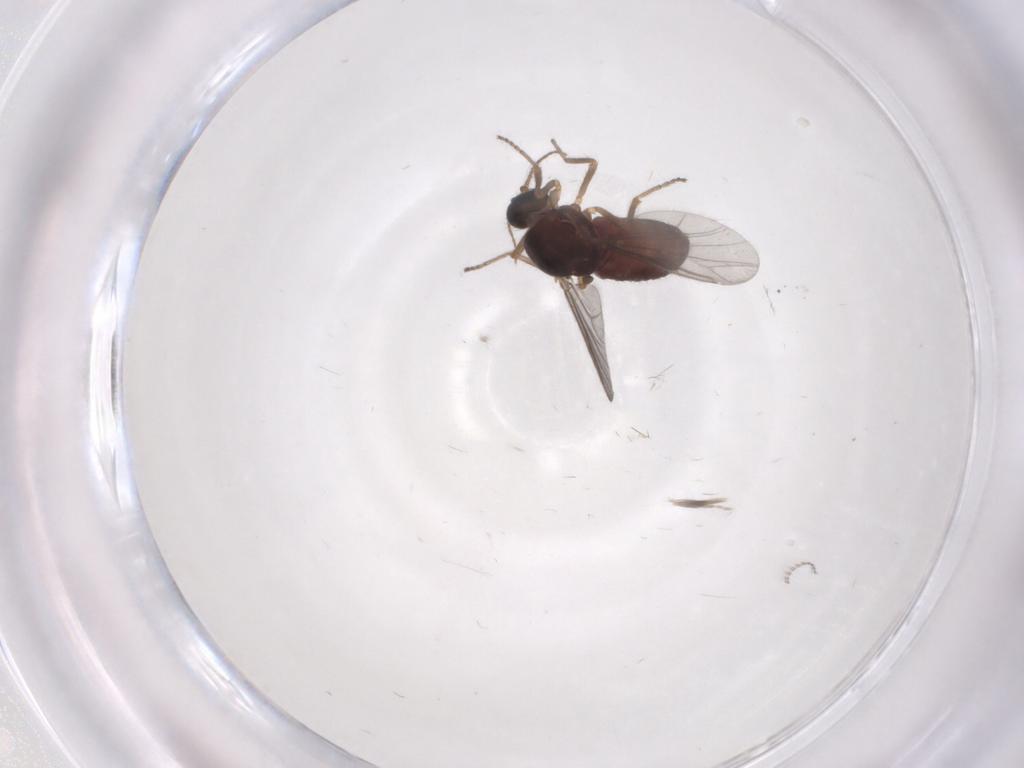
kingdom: Animalia
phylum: Arthropoda
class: Insecta
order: Diptera
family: Ceratopogonidae
